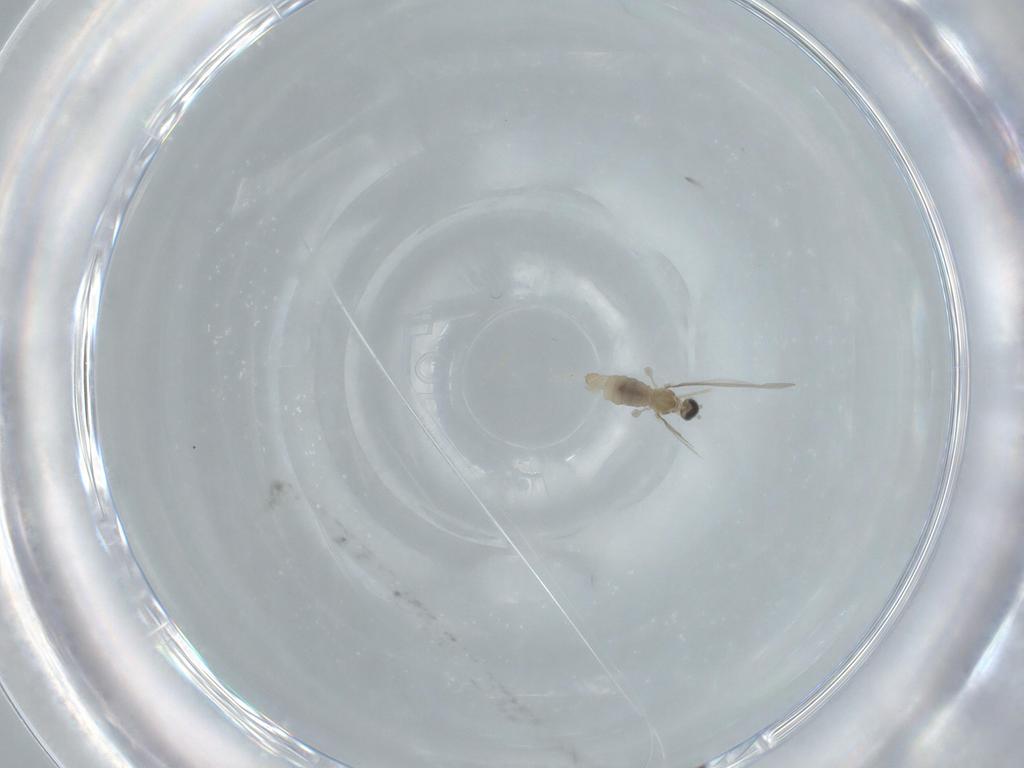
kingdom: Animalia
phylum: Arthropoda
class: Insecta
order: Diptera
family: Cecidomyiidae
